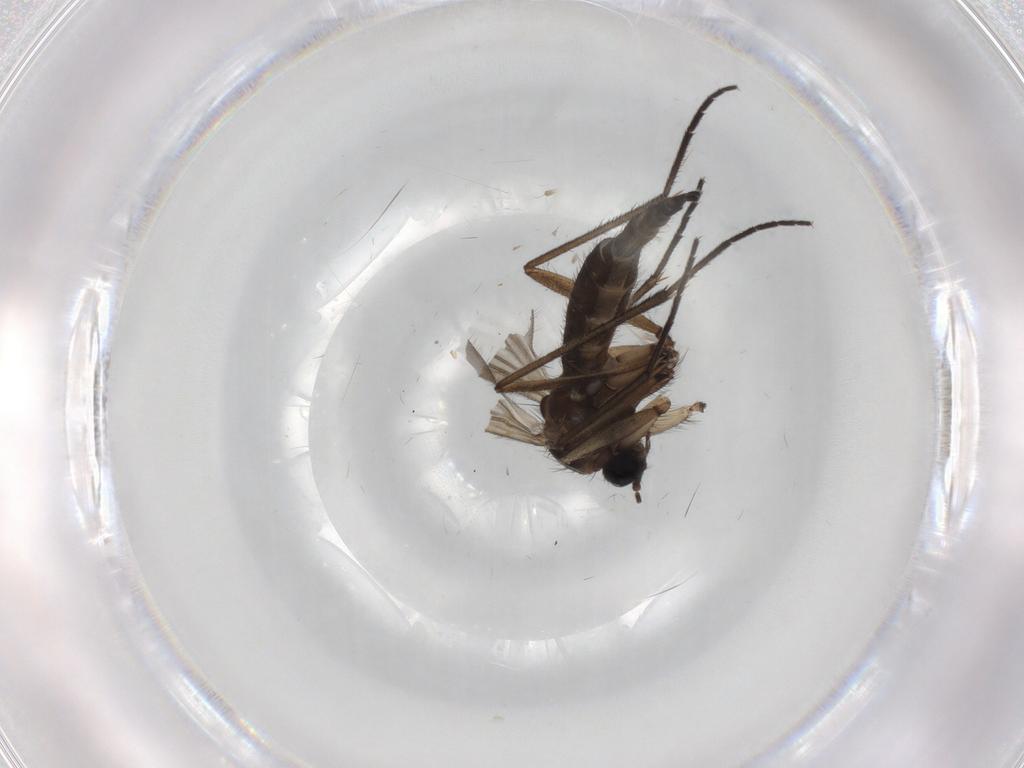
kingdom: Animalia
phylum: Arthropoda
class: Insecta
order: Diptera
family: Sciaridae
